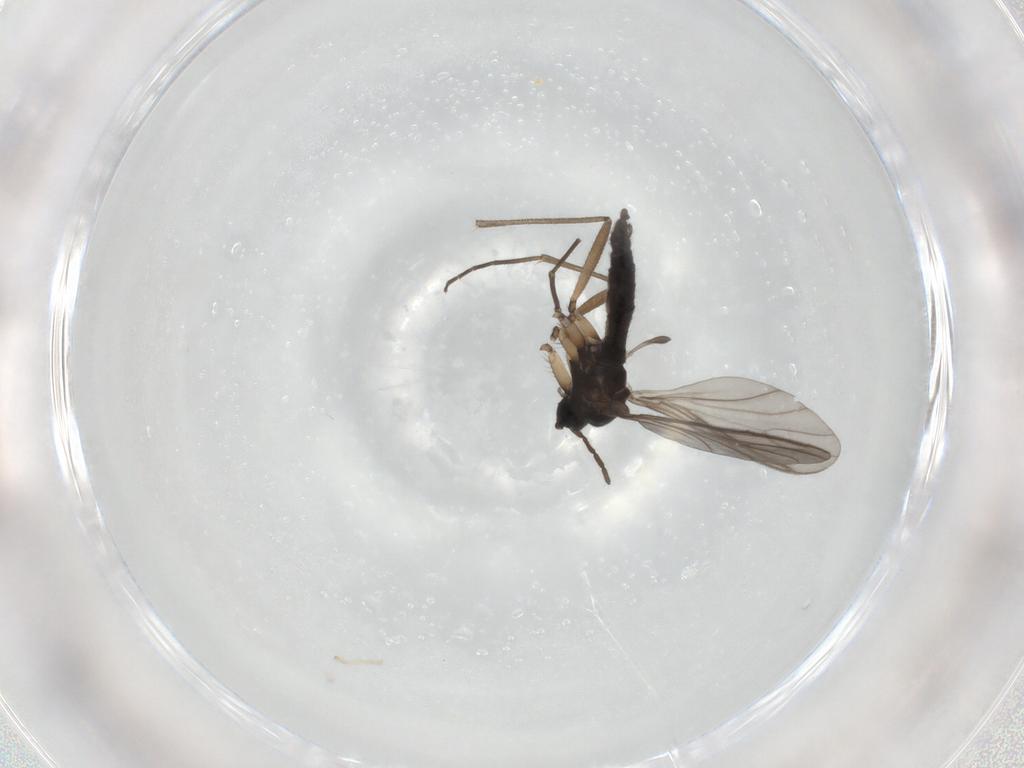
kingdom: Animalia
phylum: Arthropoda
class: Insecta
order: Diptera
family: Sciaridae
